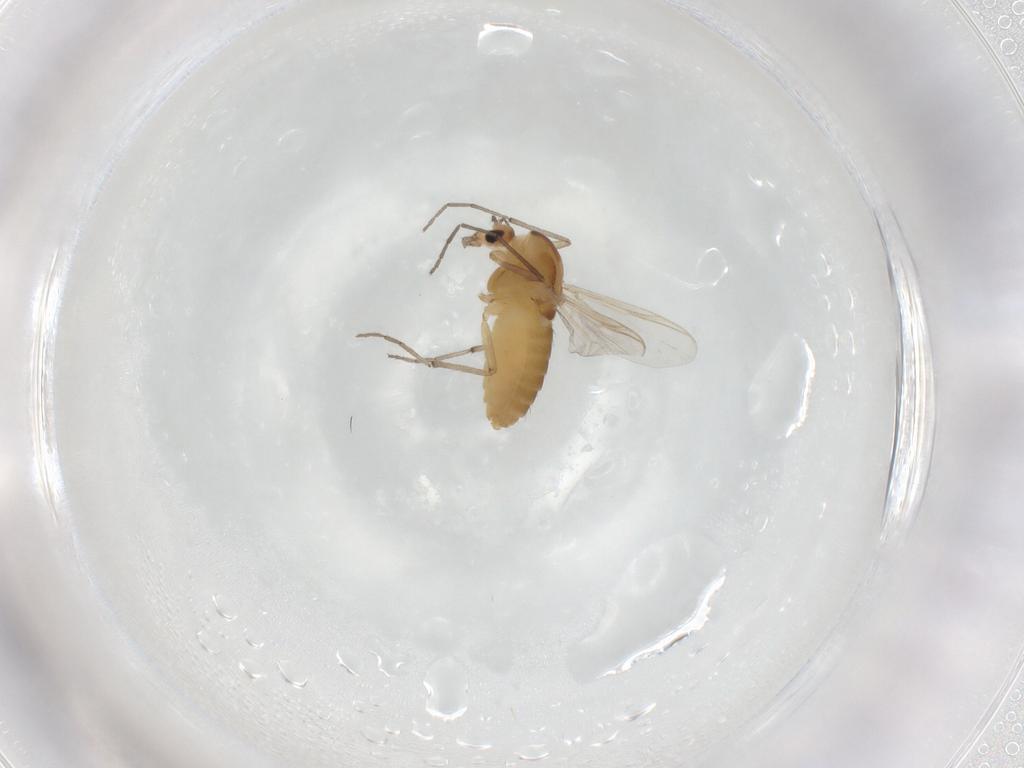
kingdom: Animalia
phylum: Arthropoda
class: Insecta
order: Diptera
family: Chironomidae
